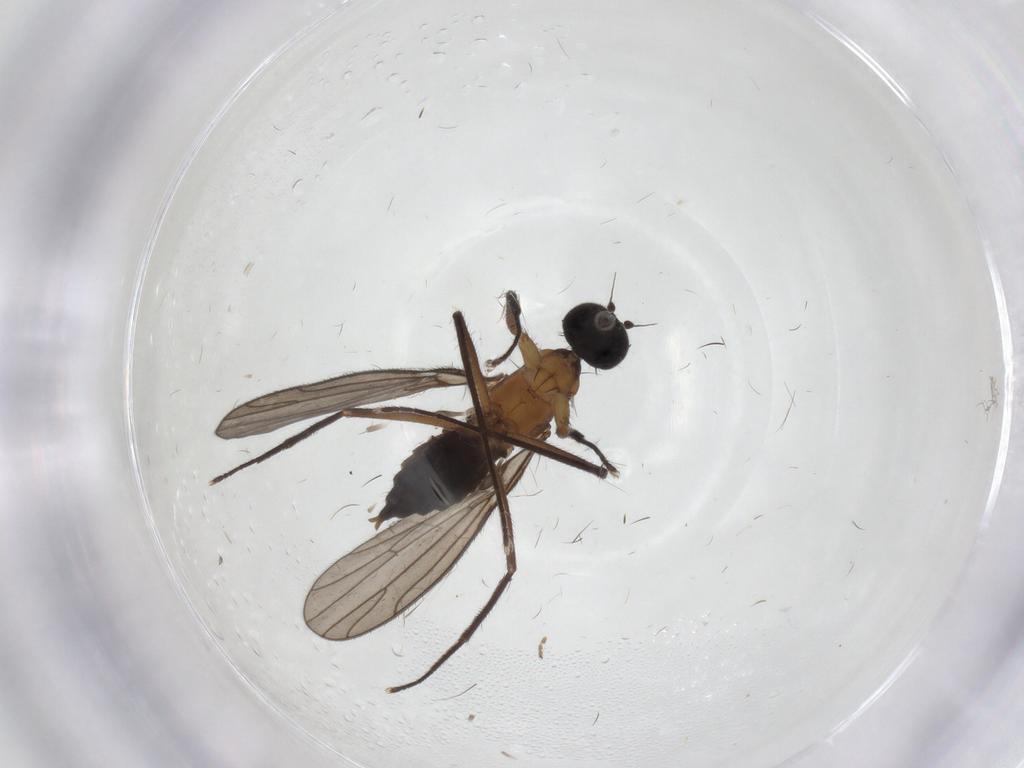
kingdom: Animalia
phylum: Arthropoda
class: Insecta
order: Diptera
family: Empididae
